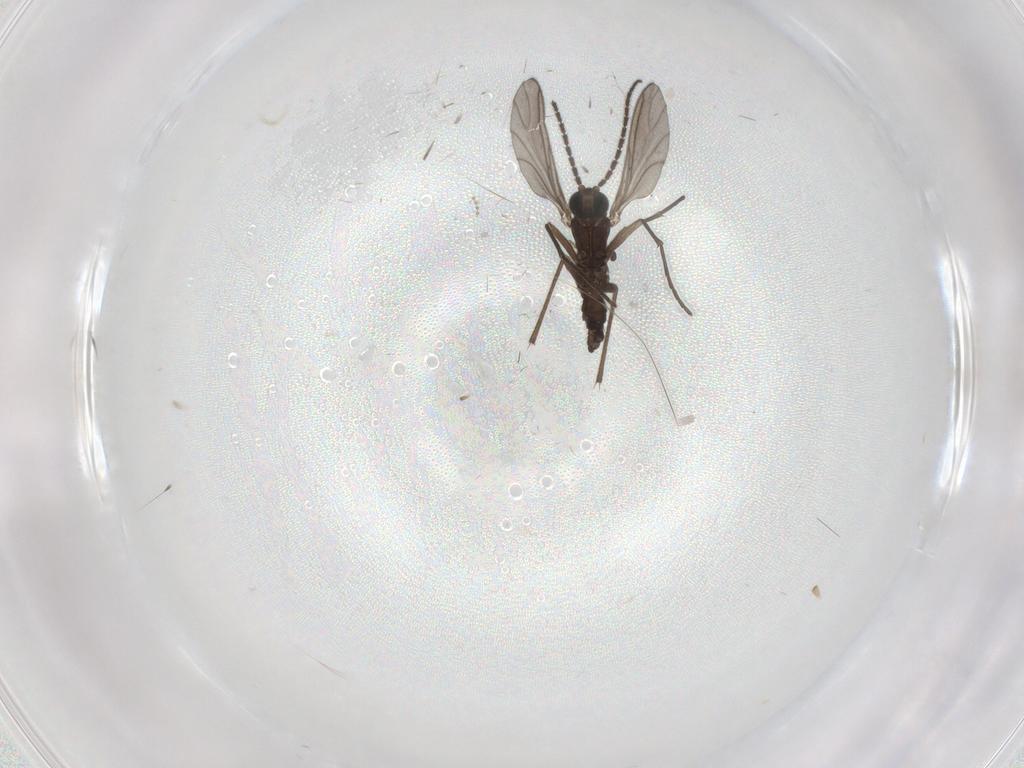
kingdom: Animalia
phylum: Arthropoda
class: Insecta
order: Diptera
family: Sciaridae
